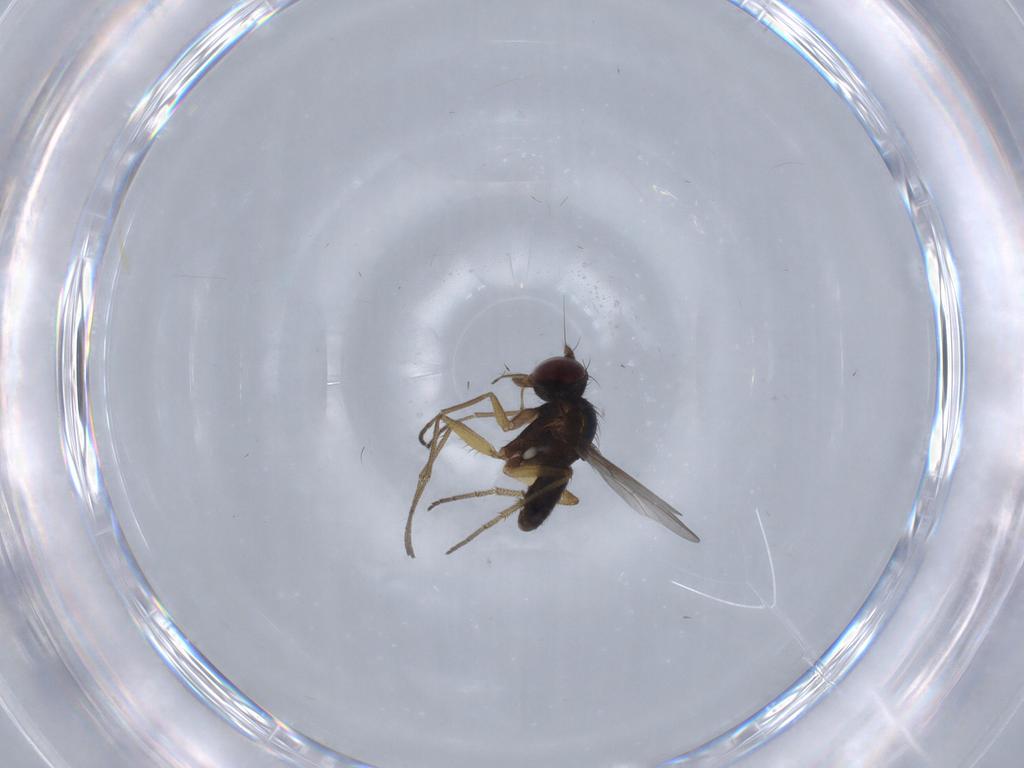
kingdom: Animalia
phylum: Arthropoda
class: Insecta
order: Diptera
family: Dolichopodidae
